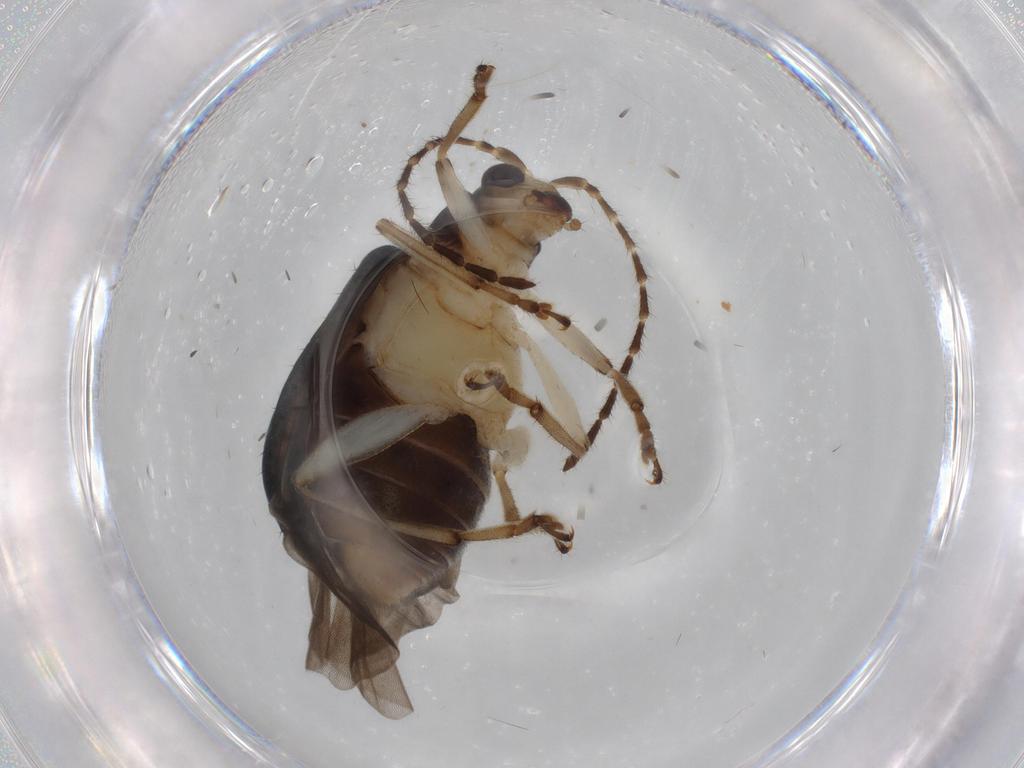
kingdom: Animalia
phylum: Arthropoda
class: Insecta
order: Coleoptera
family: Chrysomelidae
